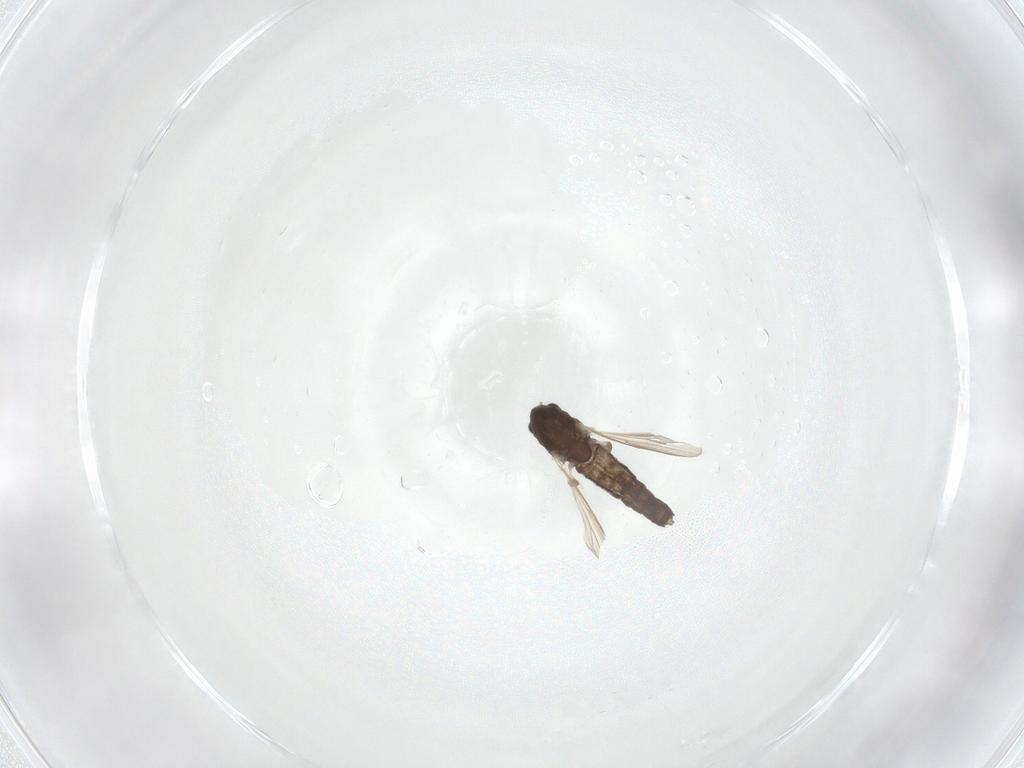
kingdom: Animalia
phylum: Arthropoda
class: Insecta
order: Diptera
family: Chironomidae
